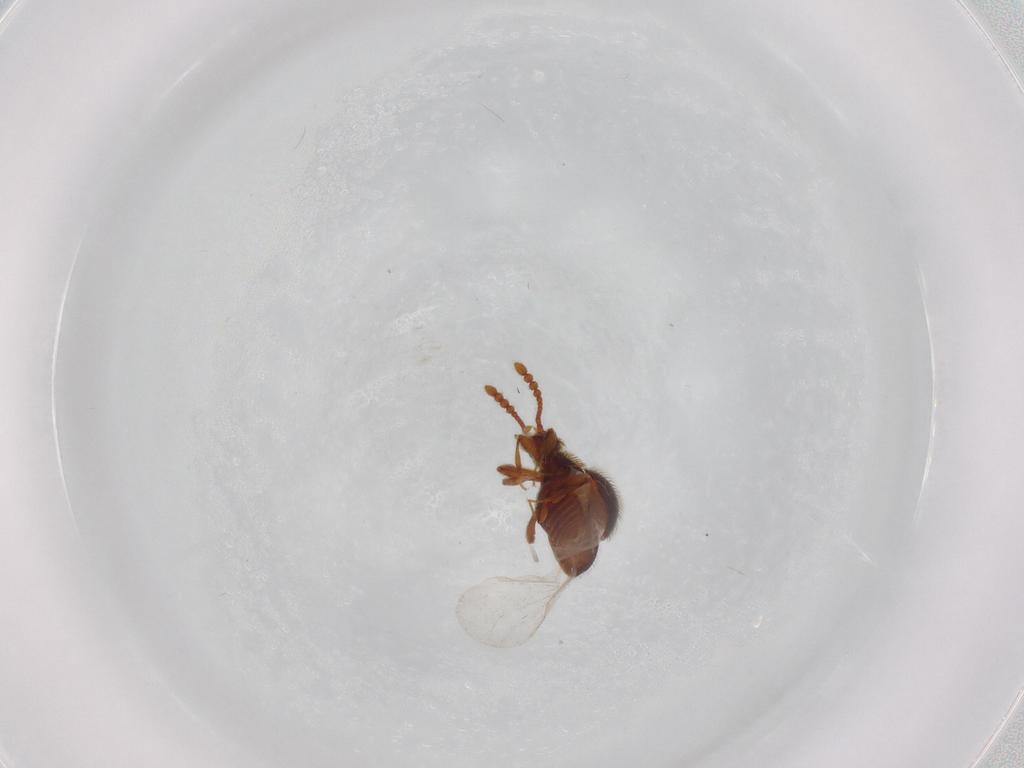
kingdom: Animalia
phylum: Arthropoda
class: Insecta
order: Coleoptera
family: Staphylinidae
